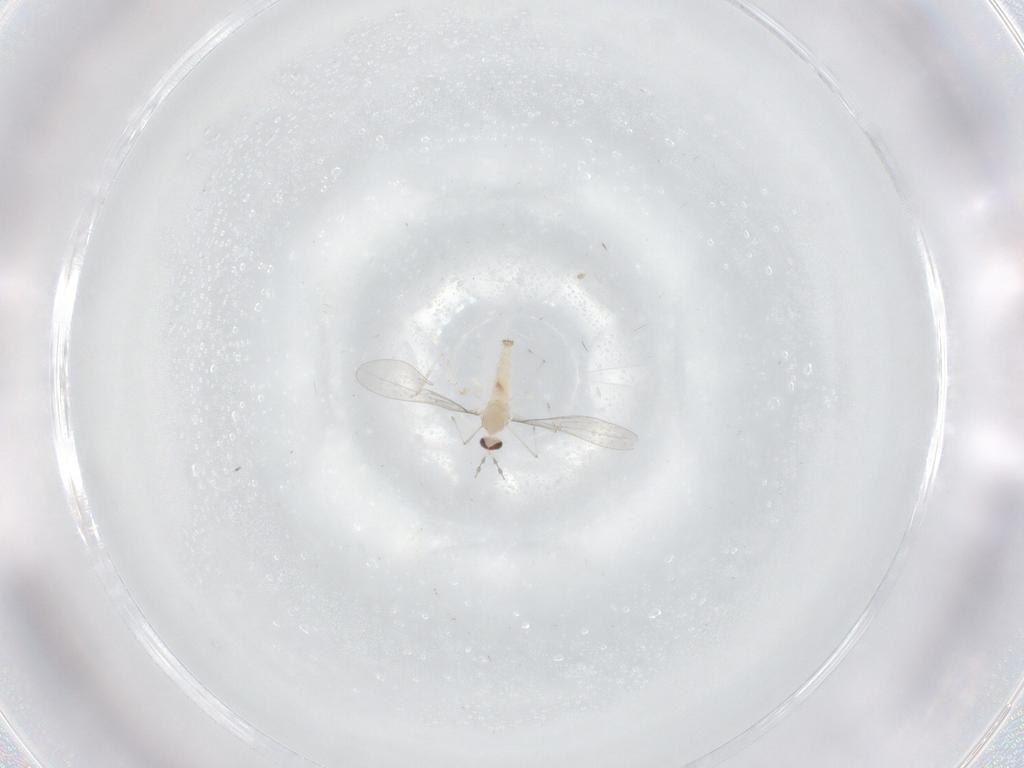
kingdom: Animalia
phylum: Arthropoda
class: Insecta
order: Diptera
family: Cecidomyiidae
